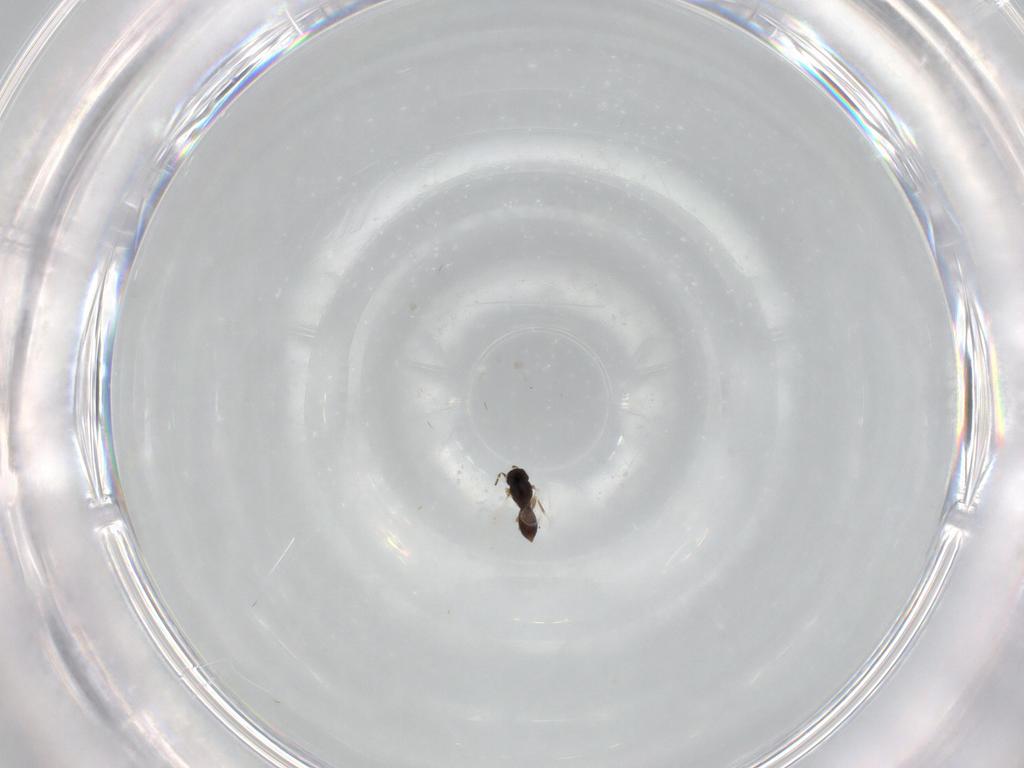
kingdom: Animalia
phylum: Arthropoda
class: Insecta
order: Hymenoptera
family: Scelionidae
